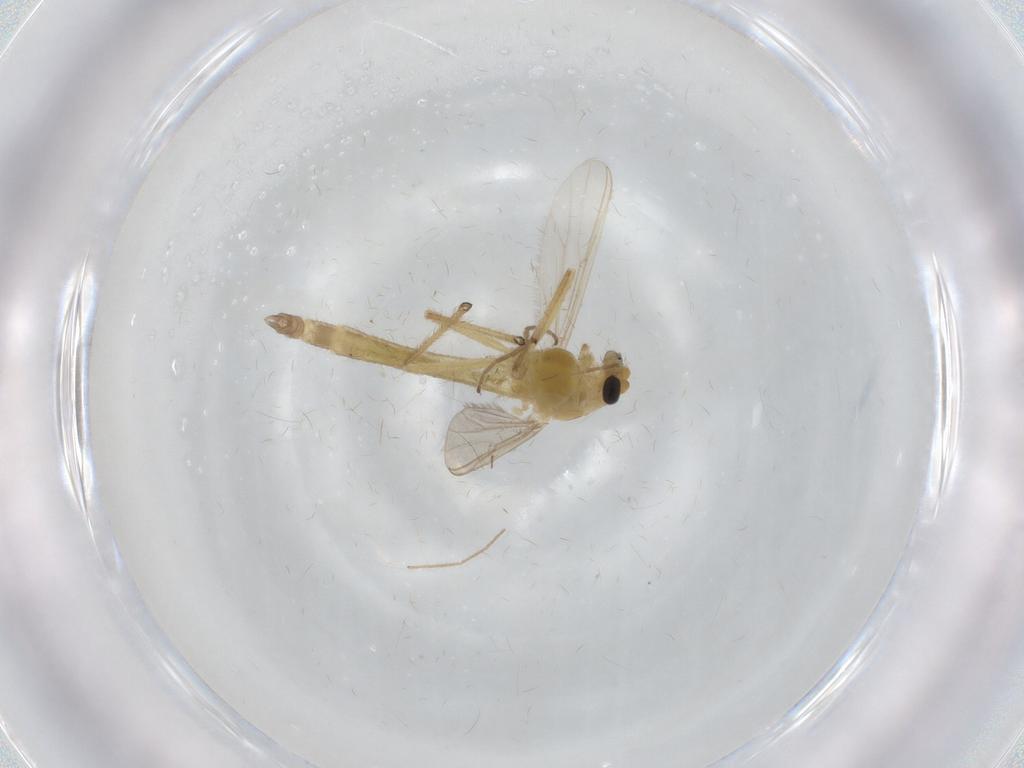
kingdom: Animalia
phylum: Arthropoda
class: Insecta
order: Diptera
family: Chironomidae
